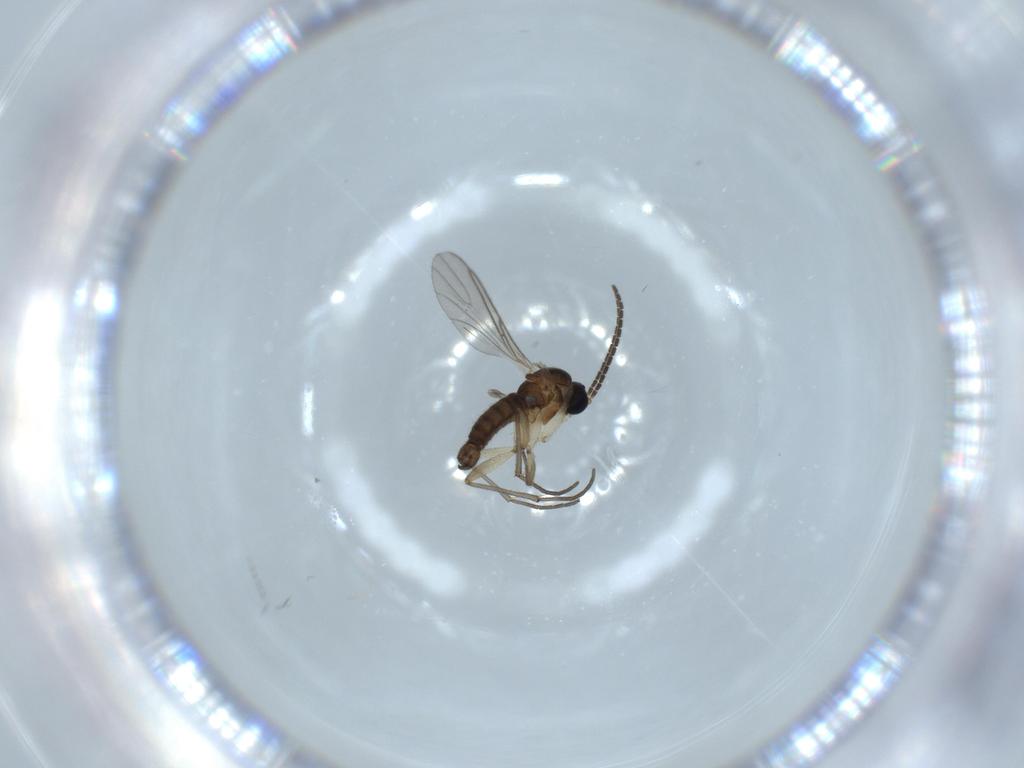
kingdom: Animalia
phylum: Arthropoda
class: Insecta
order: Diptera
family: Sciaridae
